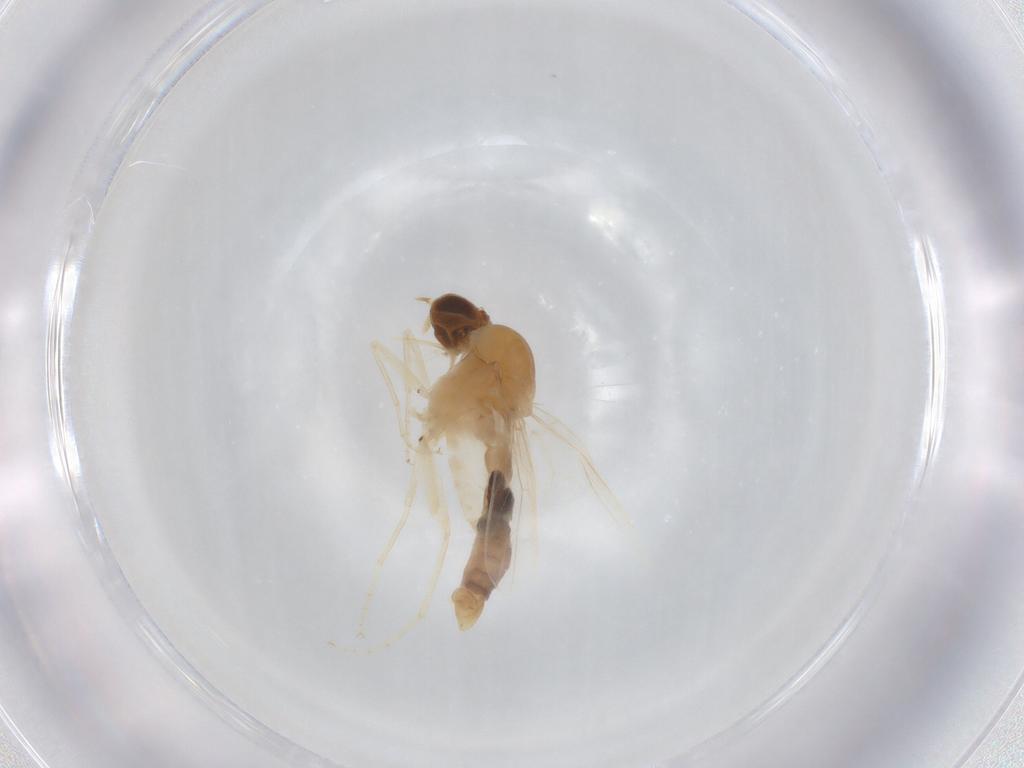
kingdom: Animalia
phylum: Arthropoda
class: Insecta
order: Diptera
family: Scenopinidae
